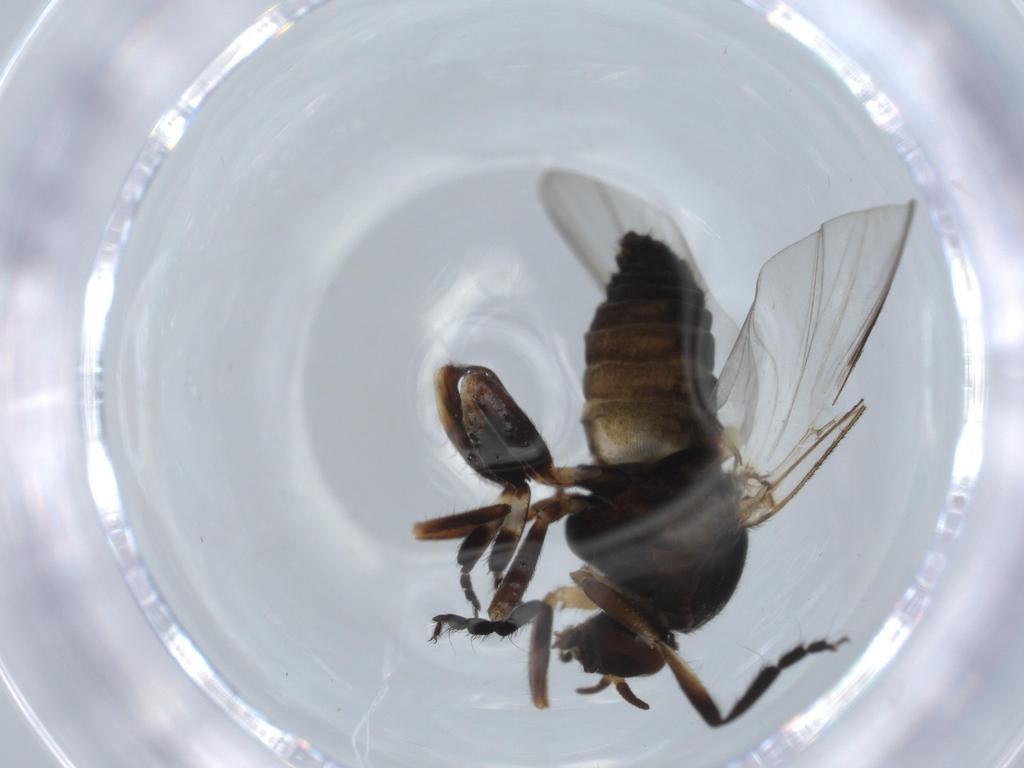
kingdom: Animalia
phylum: Arthropoda
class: Insecta
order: Diptera
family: Phoridae
